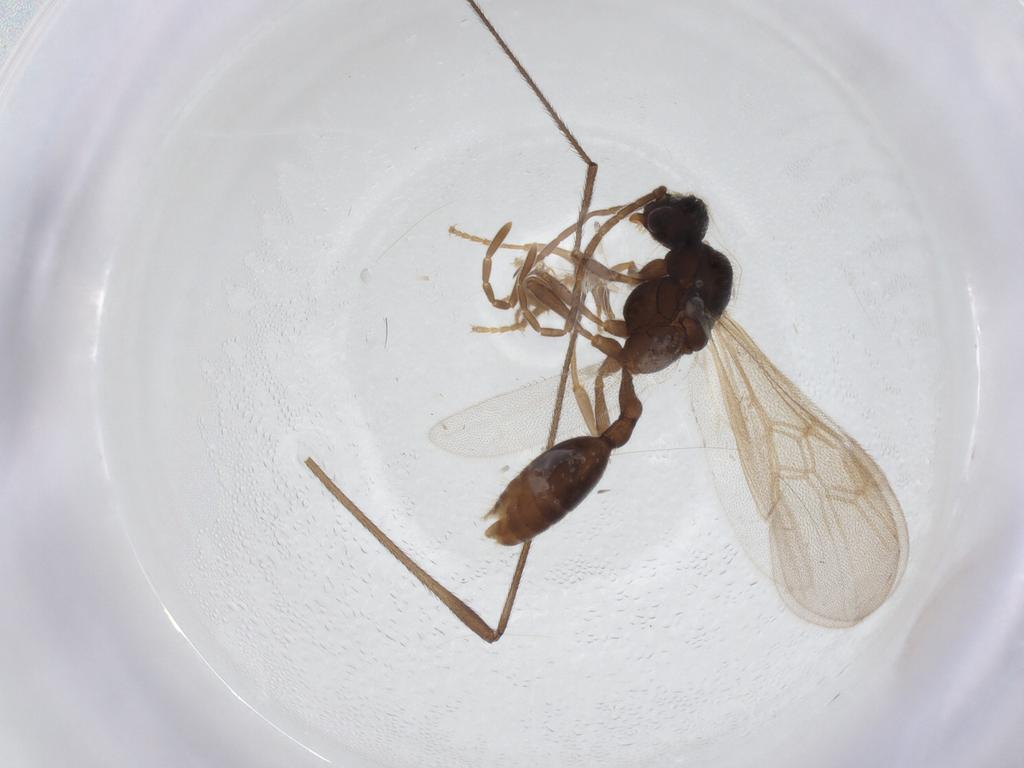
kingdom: Animalia
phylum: Arthropoda
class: Insecta
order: Hymenoptera
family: Formicidae
